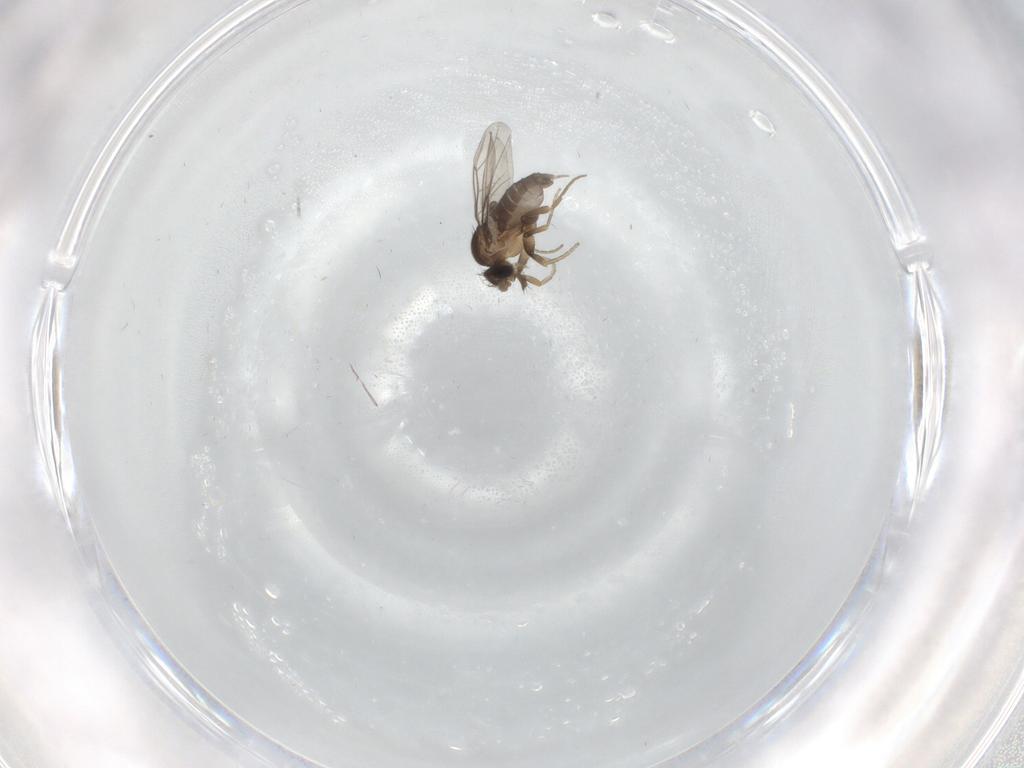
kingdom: Animalia
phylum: Arthropoda
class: Insecta
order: Diptera
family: Cecidomyiidae
